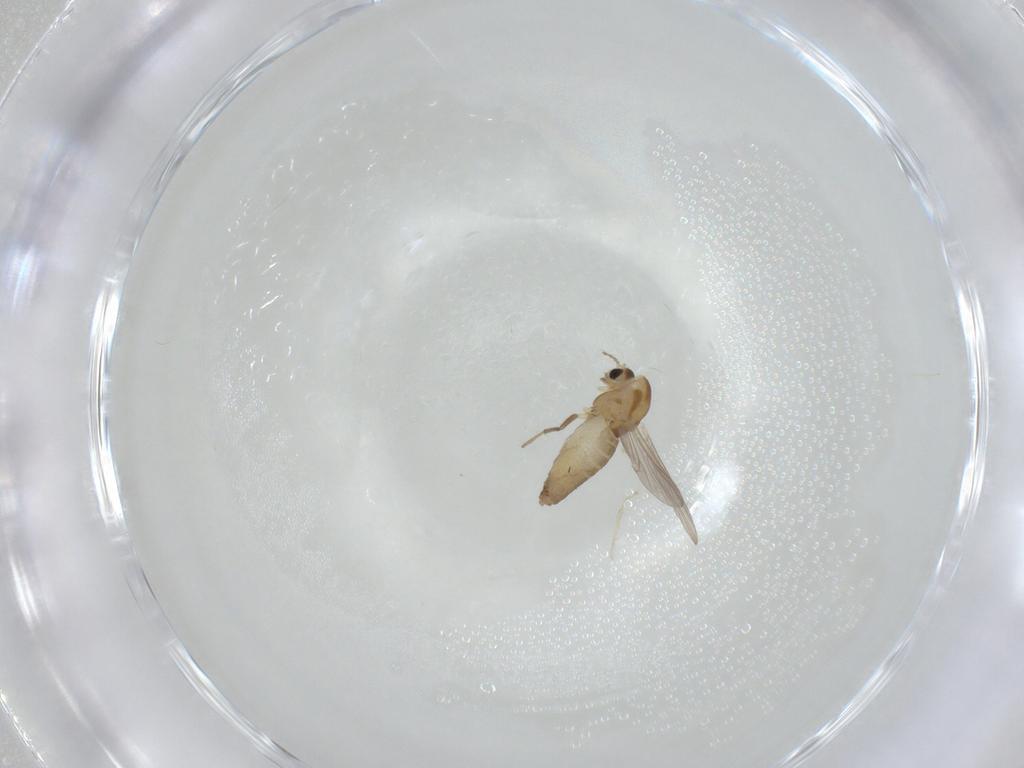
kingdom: Animalia
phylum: Arthropoda
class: Insecta
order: Diptera
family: Chironomidae
